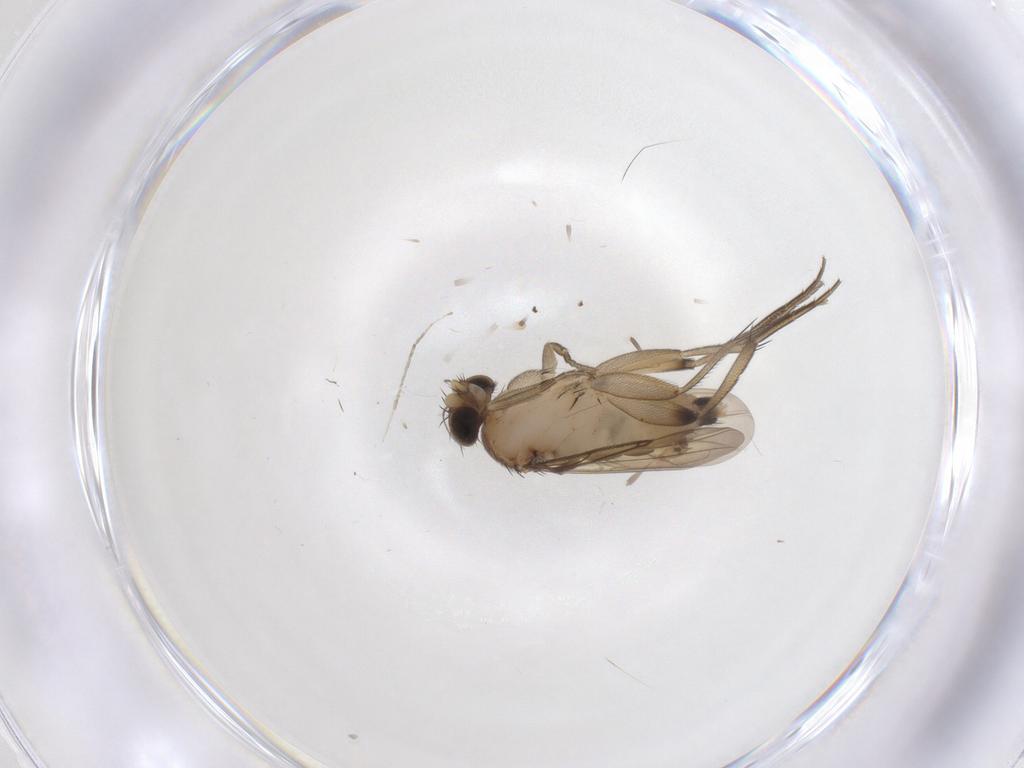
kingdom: Animalia
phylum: Arthropoda
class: Insecta
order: Diptera
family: Phoridae
